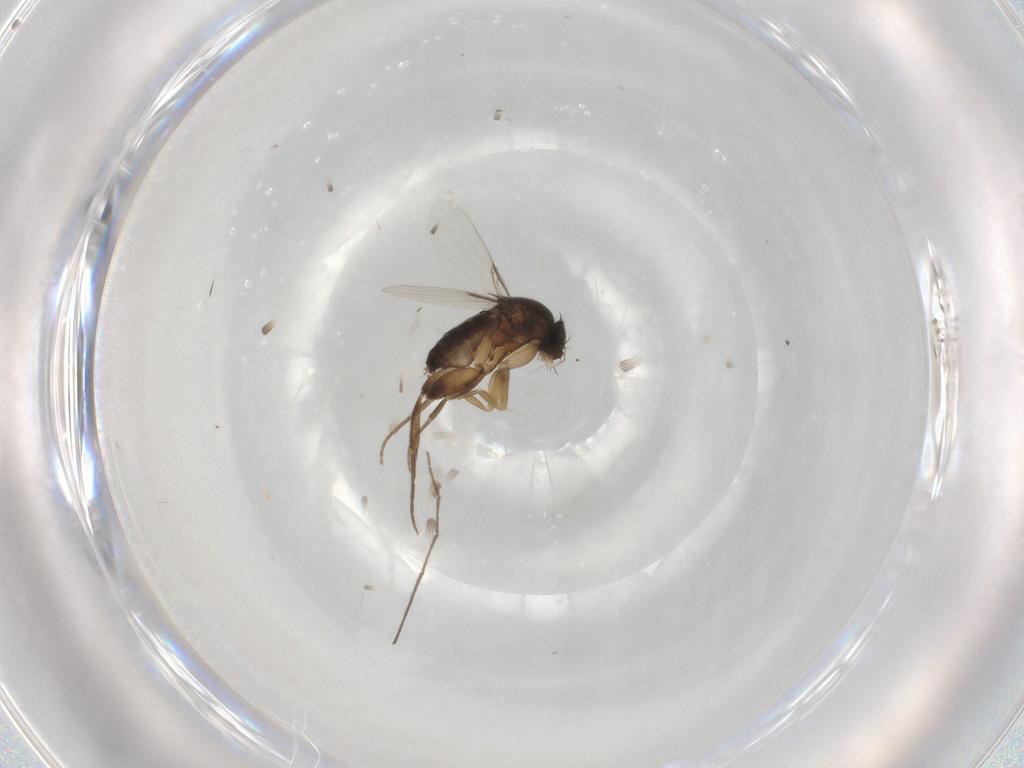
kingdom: Animalia
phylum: Arthropoda
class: Insecta
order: Diptera
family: Phoridae
